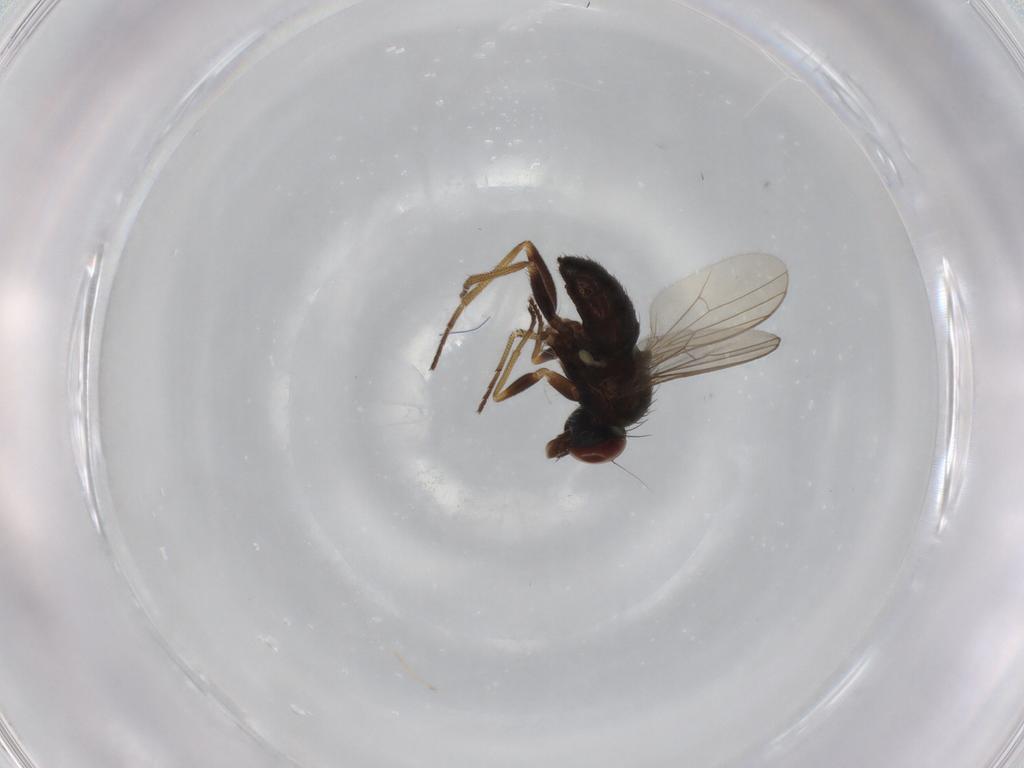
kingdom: Animalia
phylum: Arthropoda
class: Insecta
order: Diptera
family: Dolichopodidae
